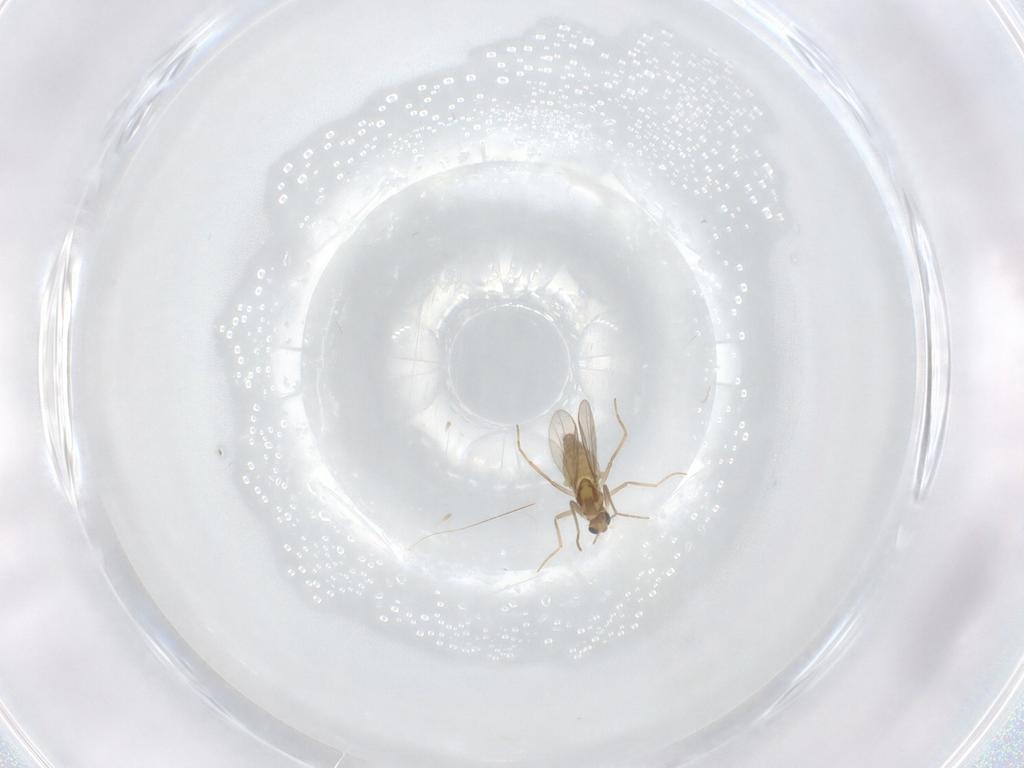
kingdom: Animalia
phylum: Arthropoda
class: Insecta
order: Diptera
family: Chironomidae
